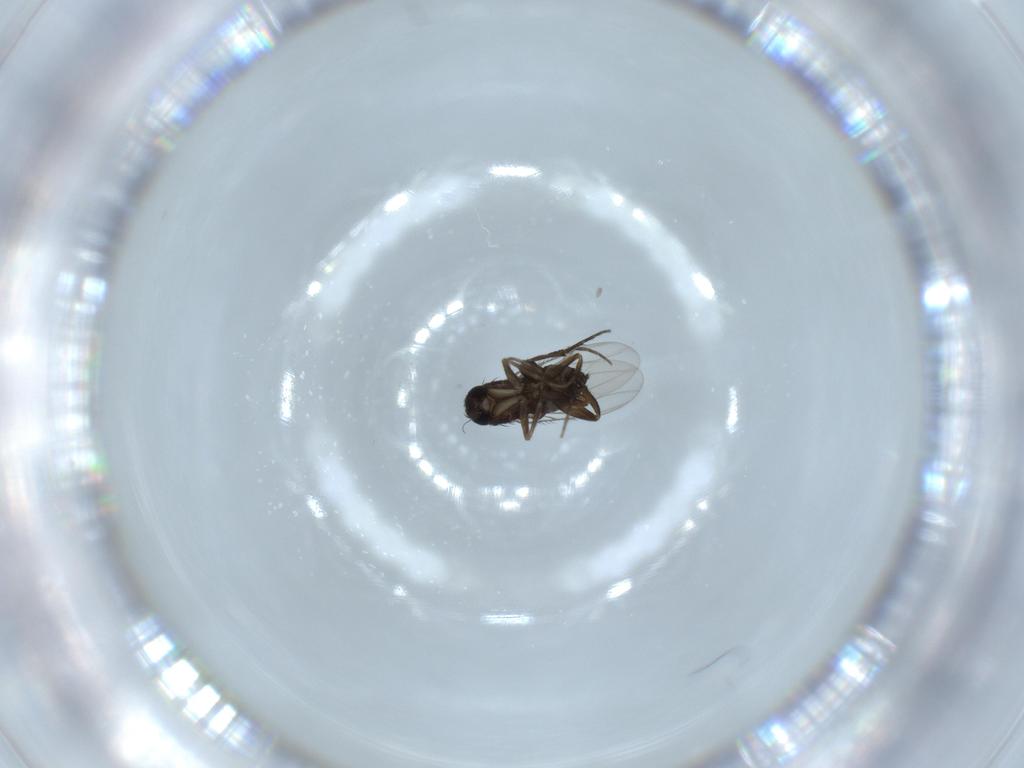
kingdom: Animalia
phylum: Arthropoda
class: Insecta
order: Diptera
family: Phoridae
